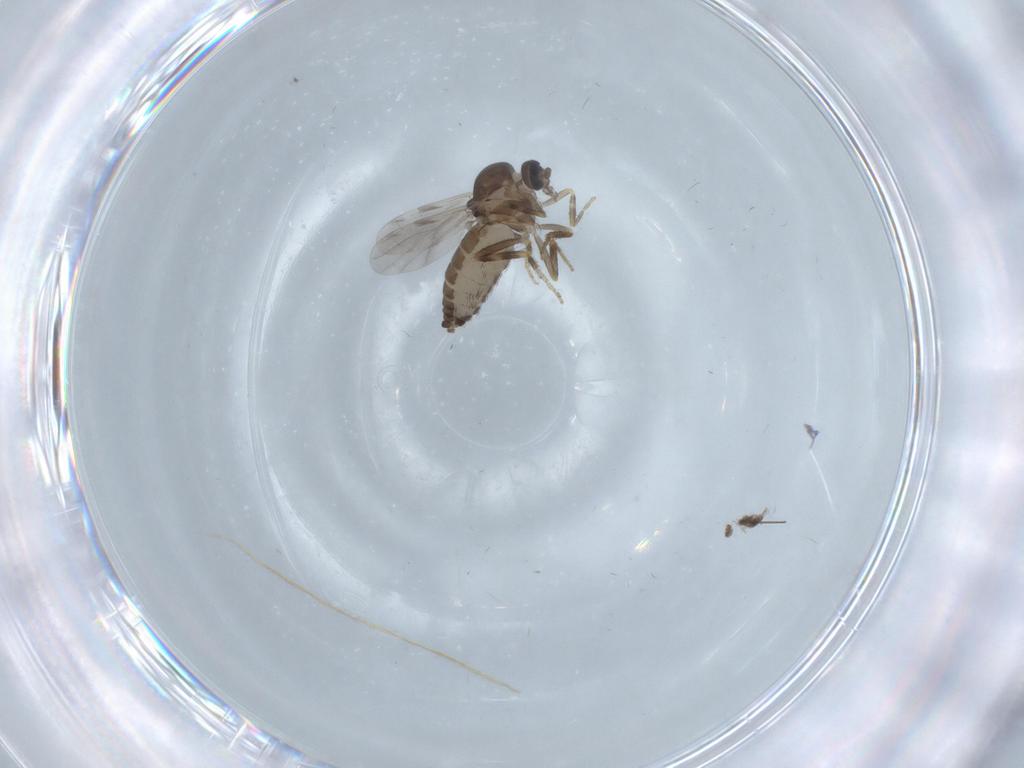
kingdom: Animalia
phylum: Arthropoda
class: Insecta
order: Diptera
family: Ceratopogonidae
